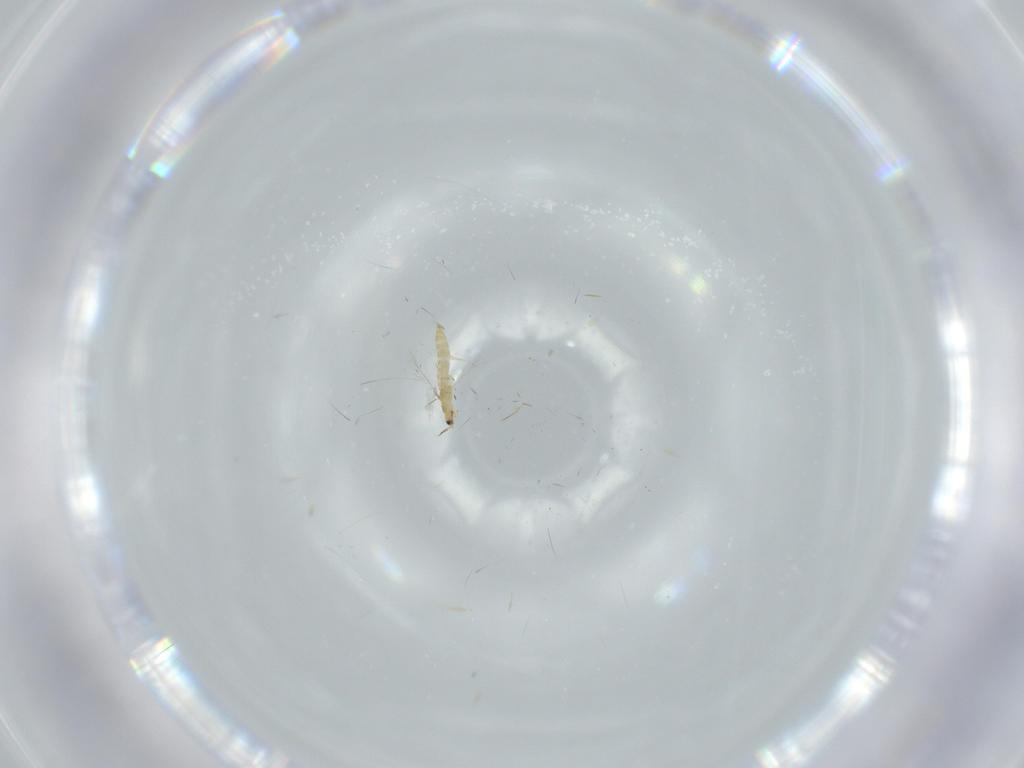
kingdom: Animalia
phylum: Arthropoda
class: Insecta
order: Thysanoptera
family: Phlaeothripidae
